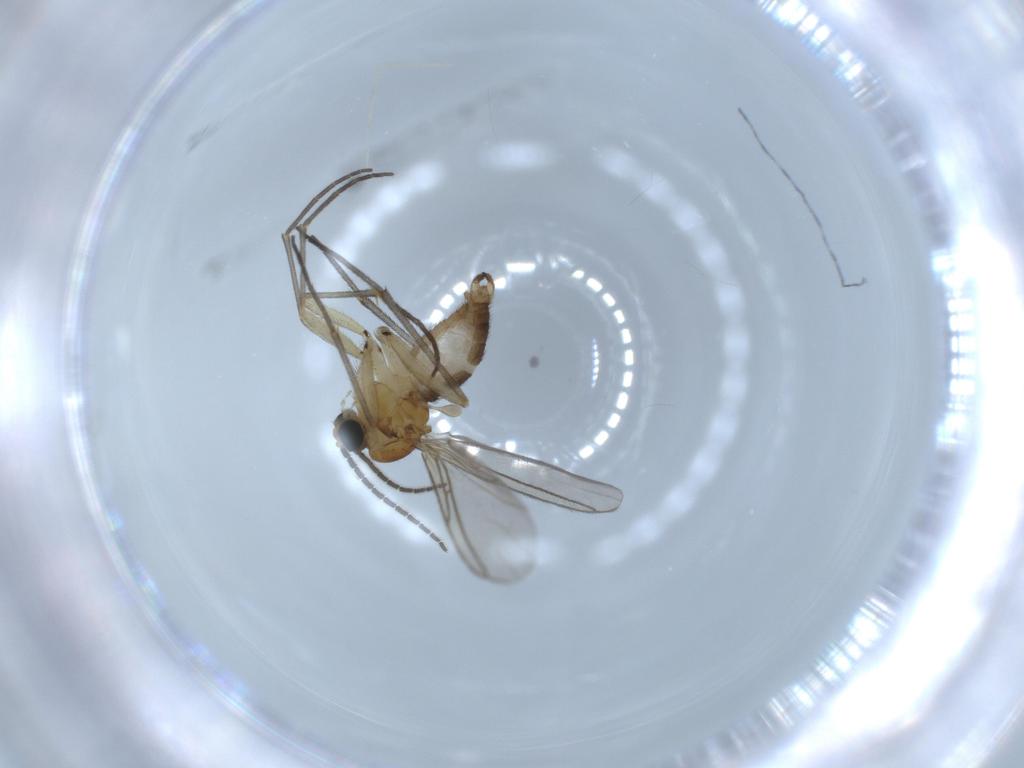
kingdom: Animalia
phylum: Arthropoda
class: Insecta
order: Diptera
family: Sciaridae
